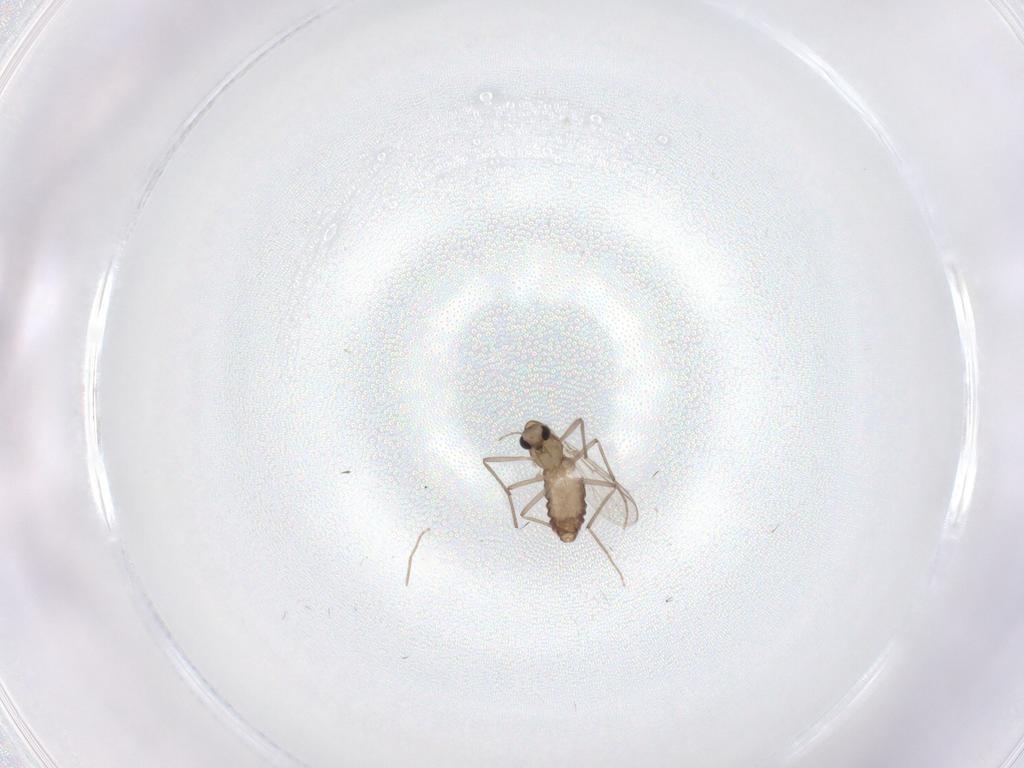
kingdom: Animalia
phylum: Arthropoda
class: Insecta
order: Diptera
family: Chironomidae
